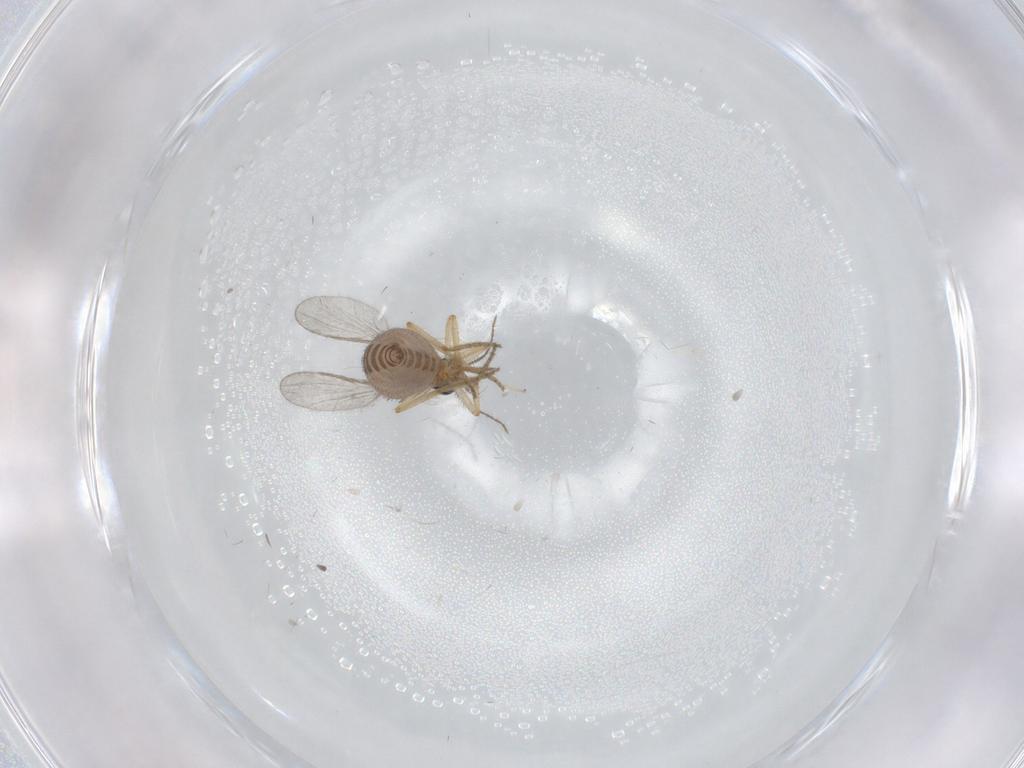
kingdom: Animalia
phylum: Arthropoda
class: Insecta
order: Diptera
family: Ceratopogonidae
